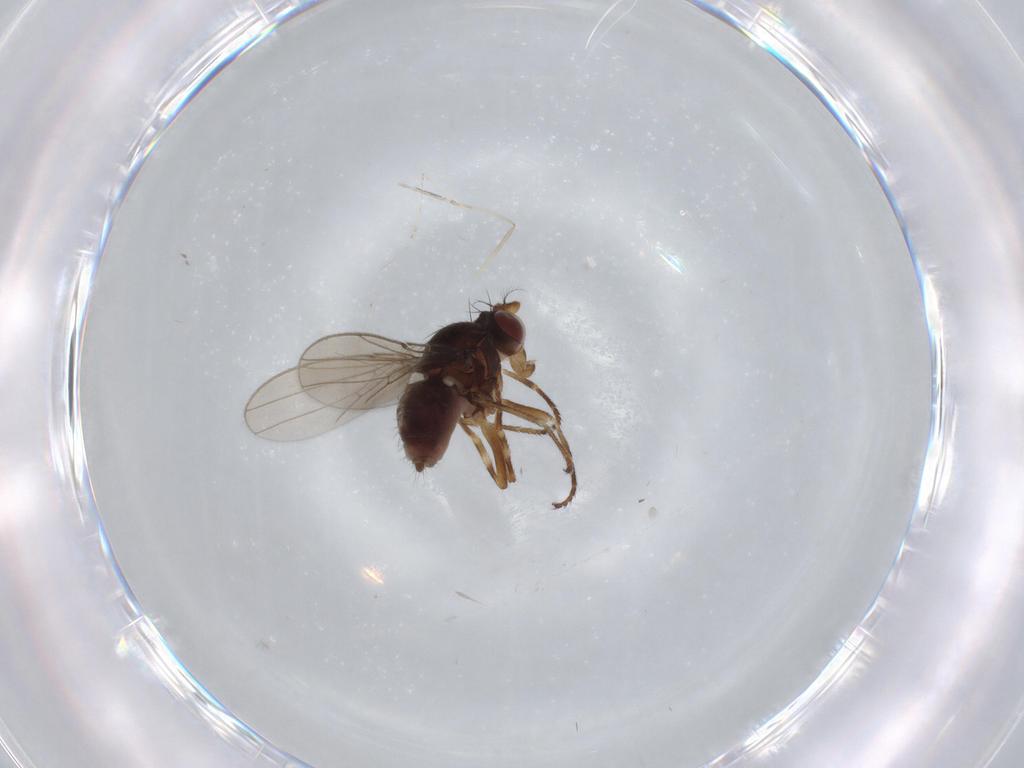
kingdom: Animalia
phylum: Arthropoda
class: Insecta
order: Diptera
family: Ephydridae
